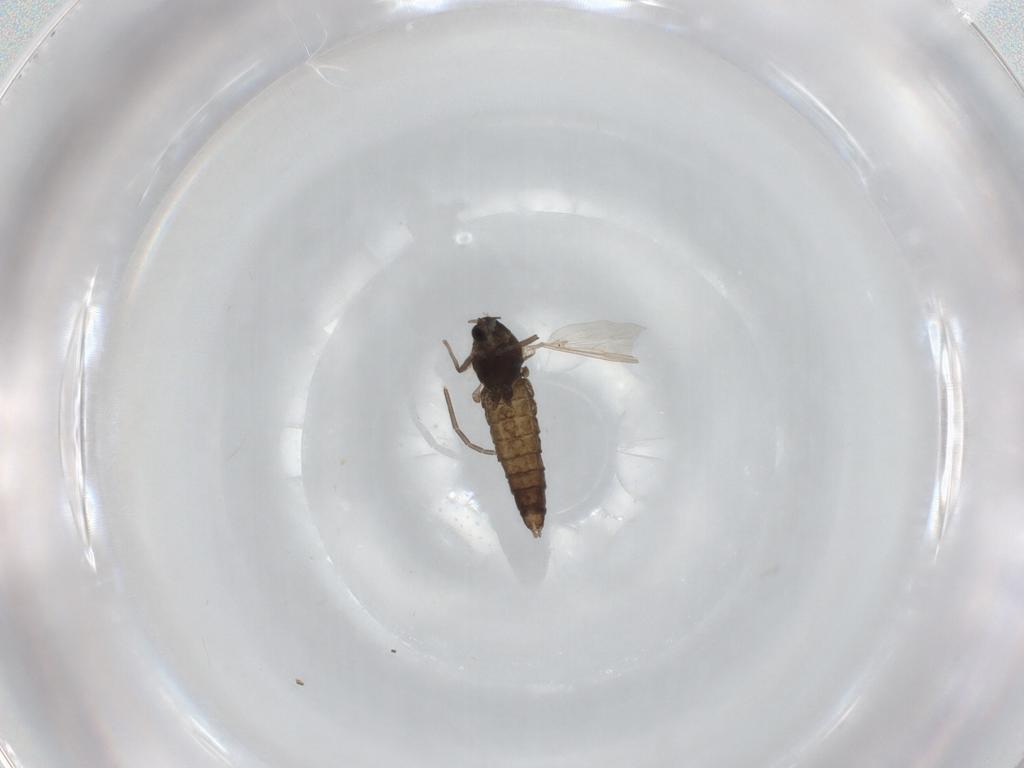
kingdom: Animalia
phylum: Arthropoda
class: Insecta
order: Diptera
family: Chironomidae
